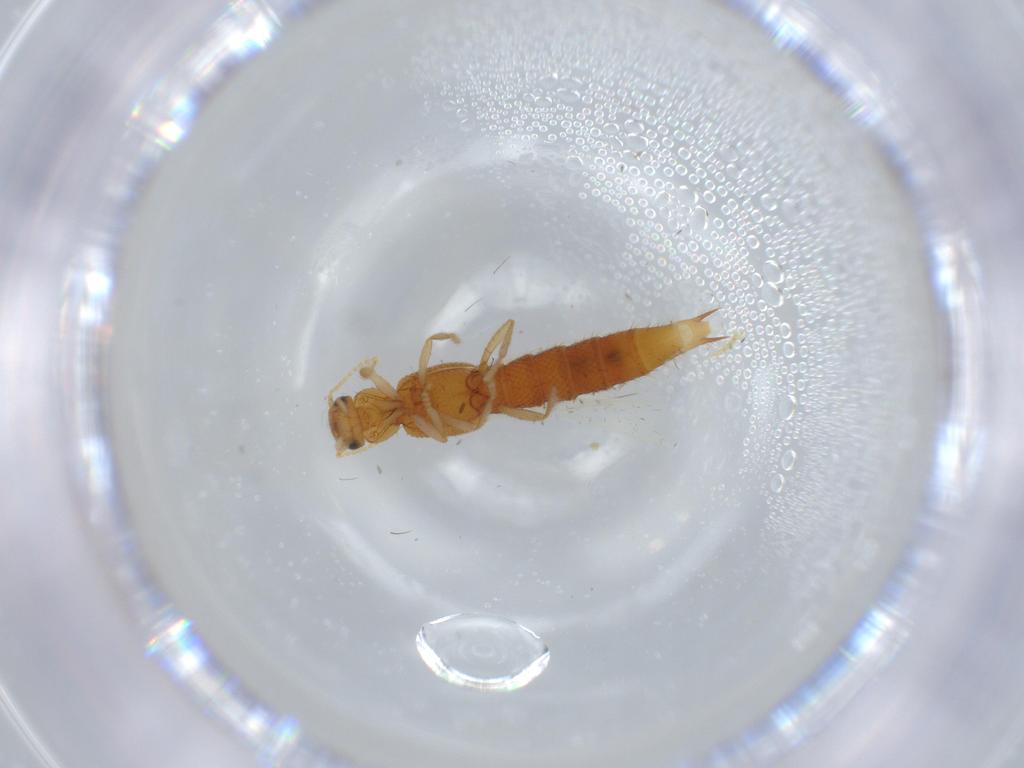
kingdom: Animalia
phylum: Arthropoda
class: Insecta
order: Coleoptera
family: Staphylinidae
